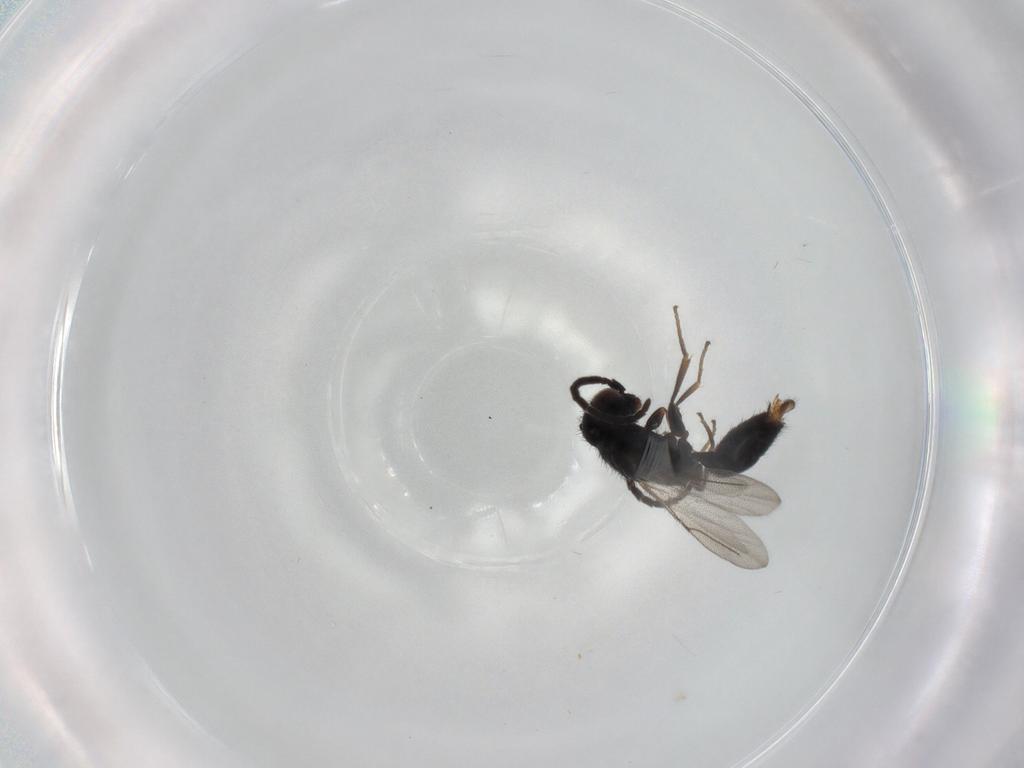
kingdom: Animalia
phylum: Arthropoda
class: Insecta
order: Hymenoptera
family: Bethylidae
